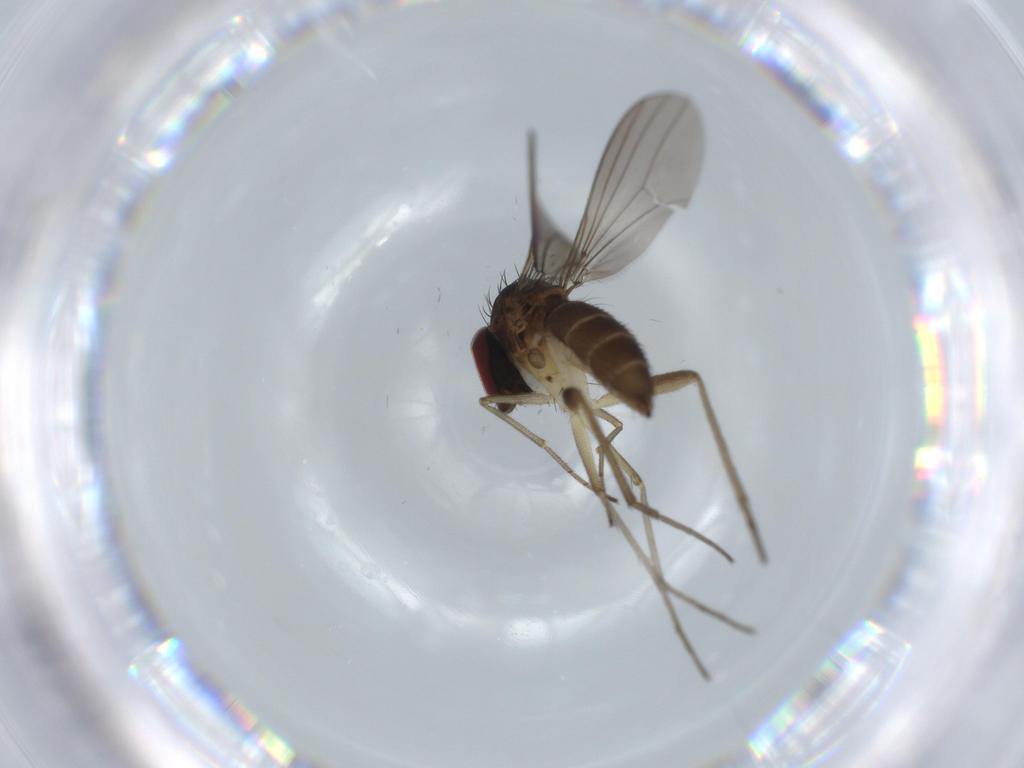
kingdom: Animalia
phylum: Arthropoda
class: Insecta
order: Diptera
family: Dolichopodidae
